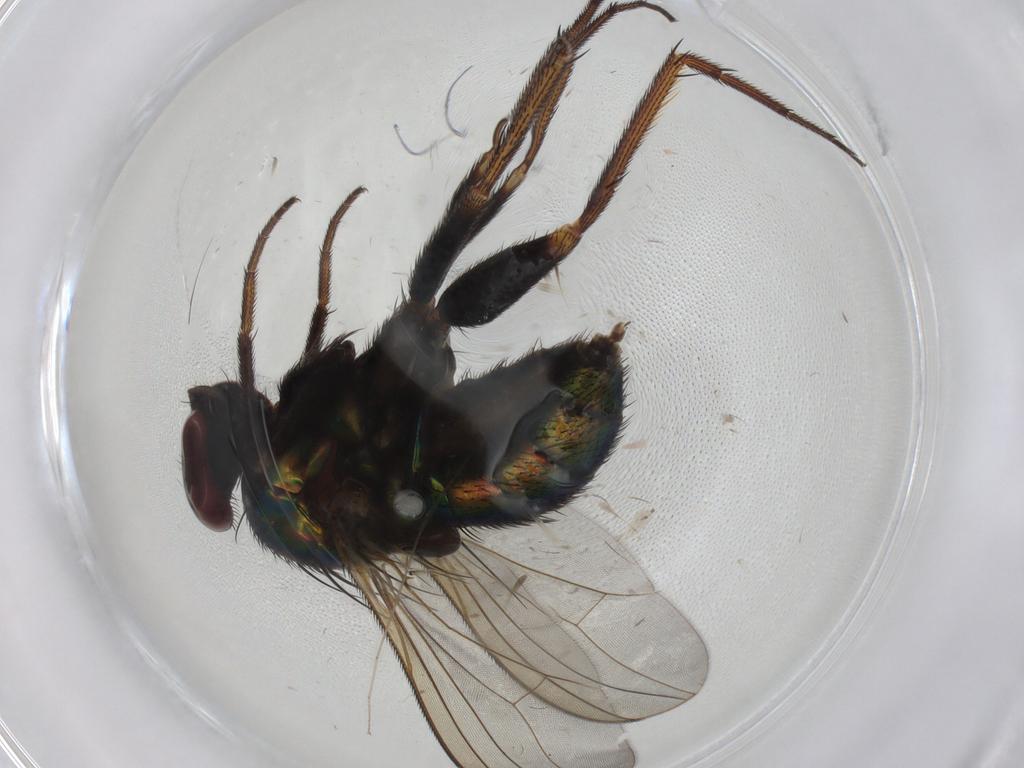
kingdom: Animalia
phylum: Arthropoda
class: Insecta
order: Diptera
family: Dolichopodidae
